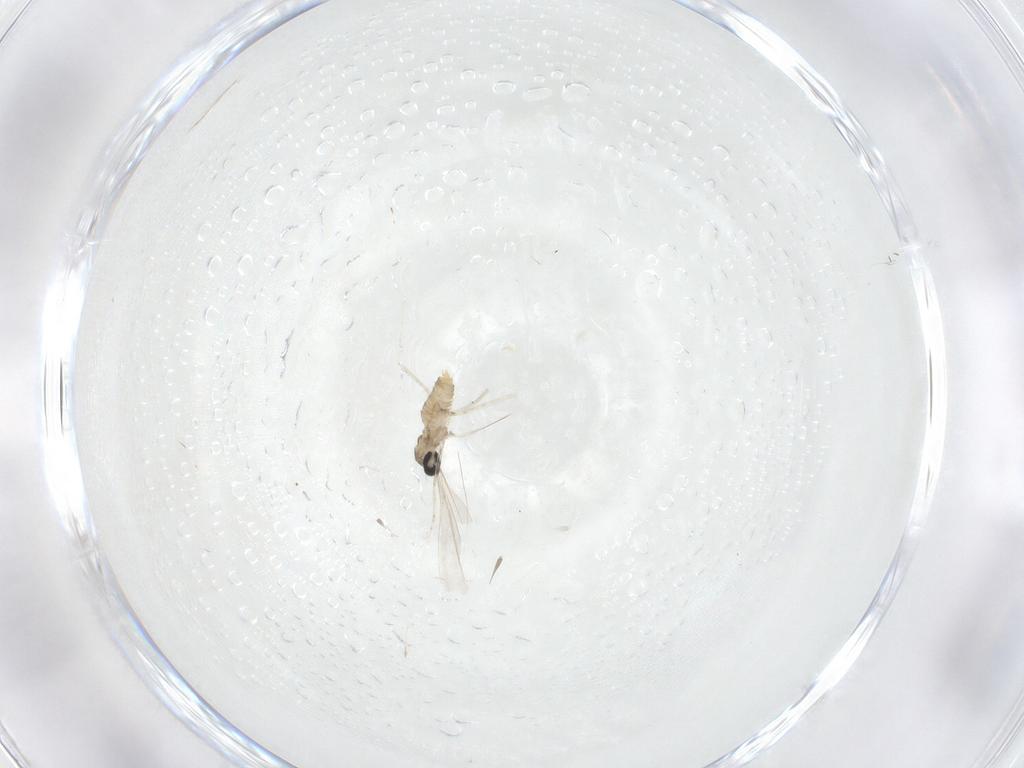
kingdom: Animalia
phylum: Arthropoda
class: Insecta
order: Diptera
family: Cecidomyiidae
